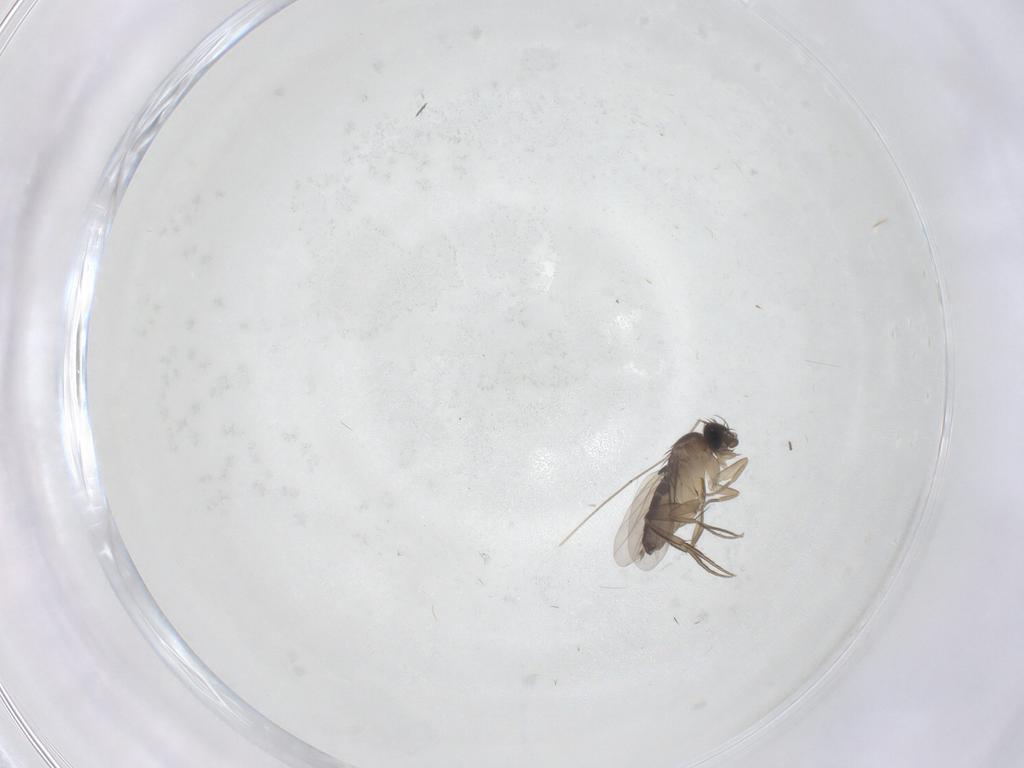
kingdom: Animalia
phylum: Arthropoda
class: Insecta
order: Diptera
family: Phoridae
